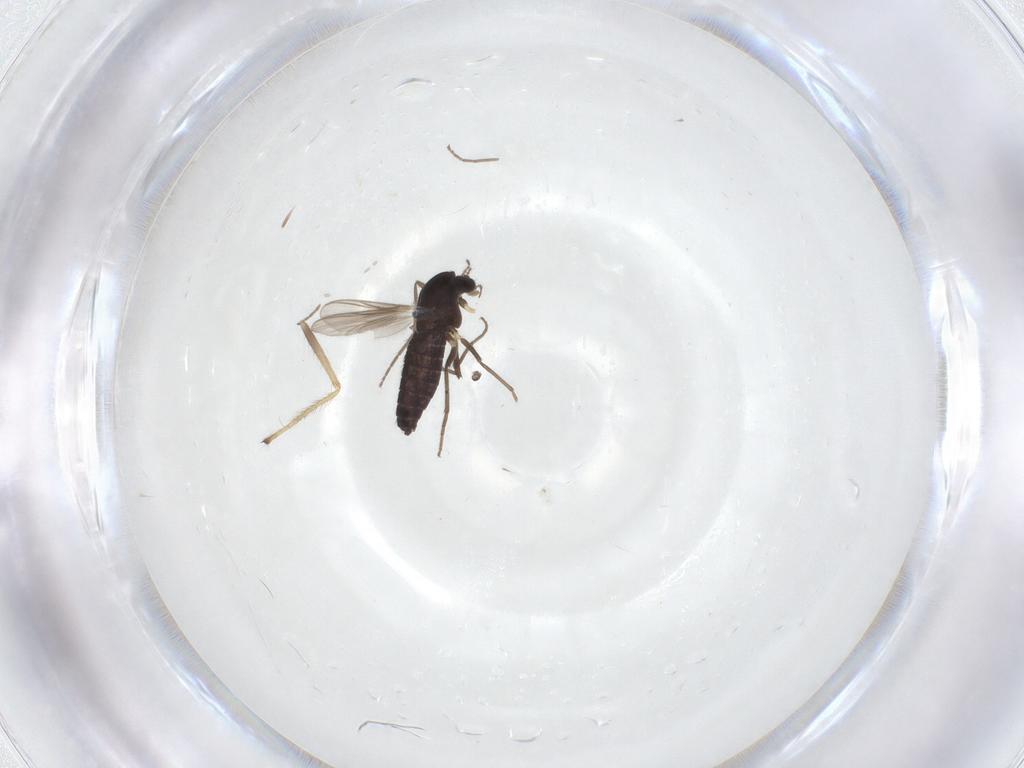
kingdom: Animalia
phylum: Arthropoda
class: Insecta
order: Diptera
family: Chironomidae
